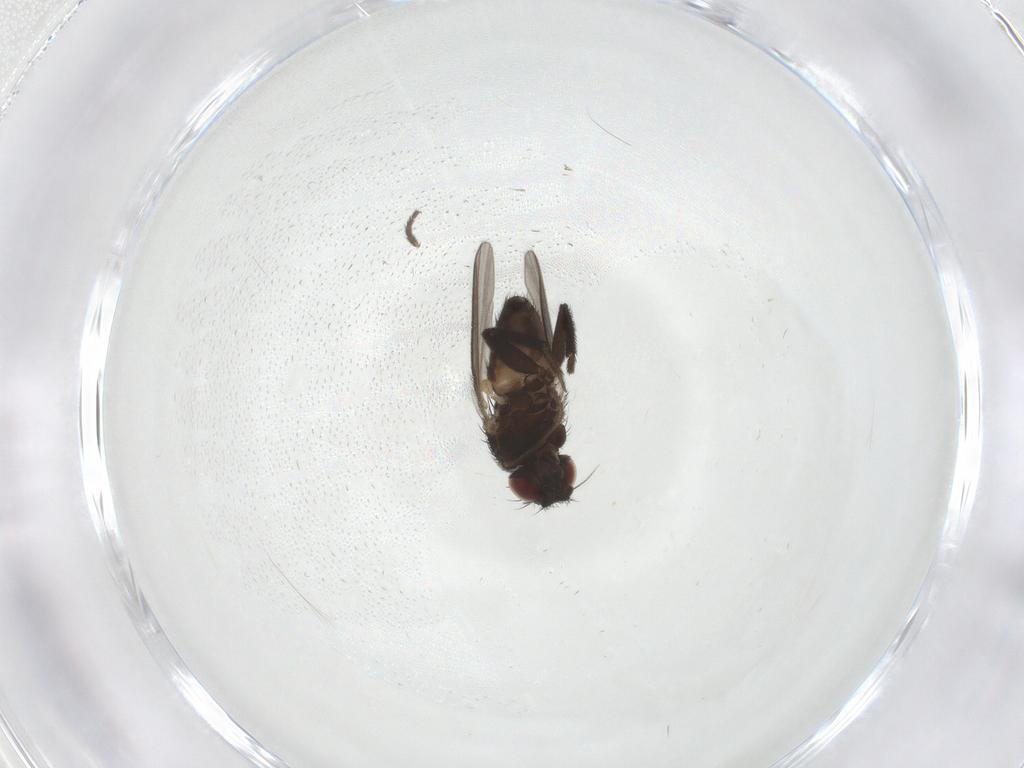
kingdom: Animalia
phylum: Arthropoda
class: Insecta
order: Diptera
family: Milichiidae
